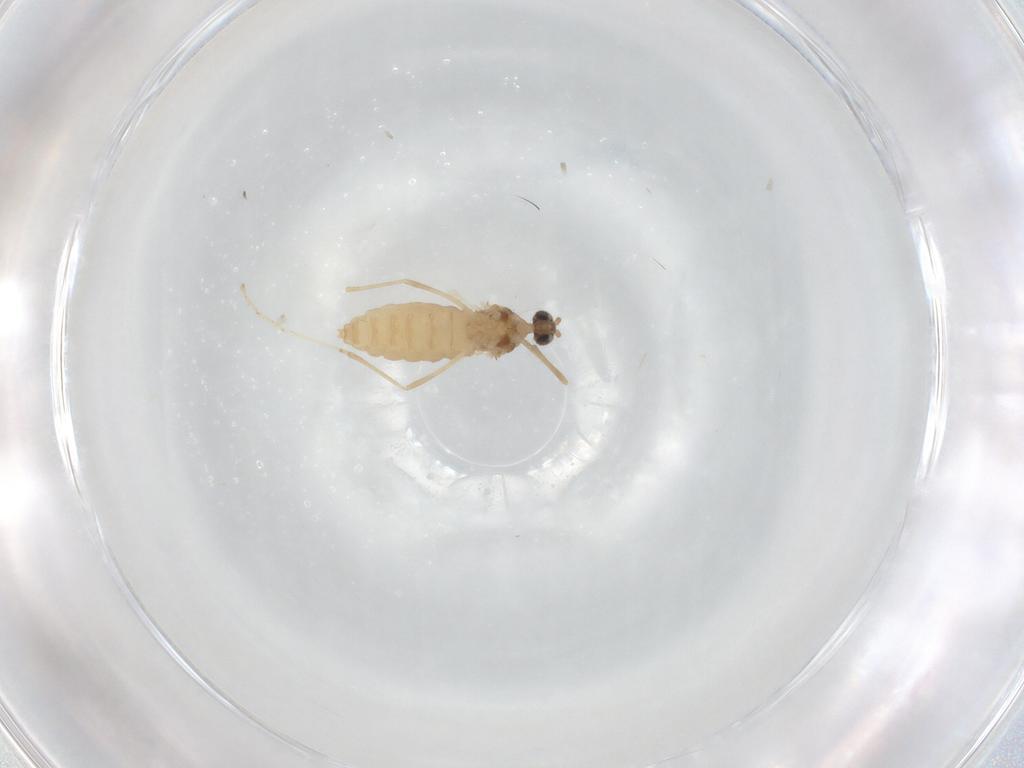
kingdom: Animalia
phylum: Arthropoda
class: Insecta
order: Diptera
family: Cecidomyiidae
